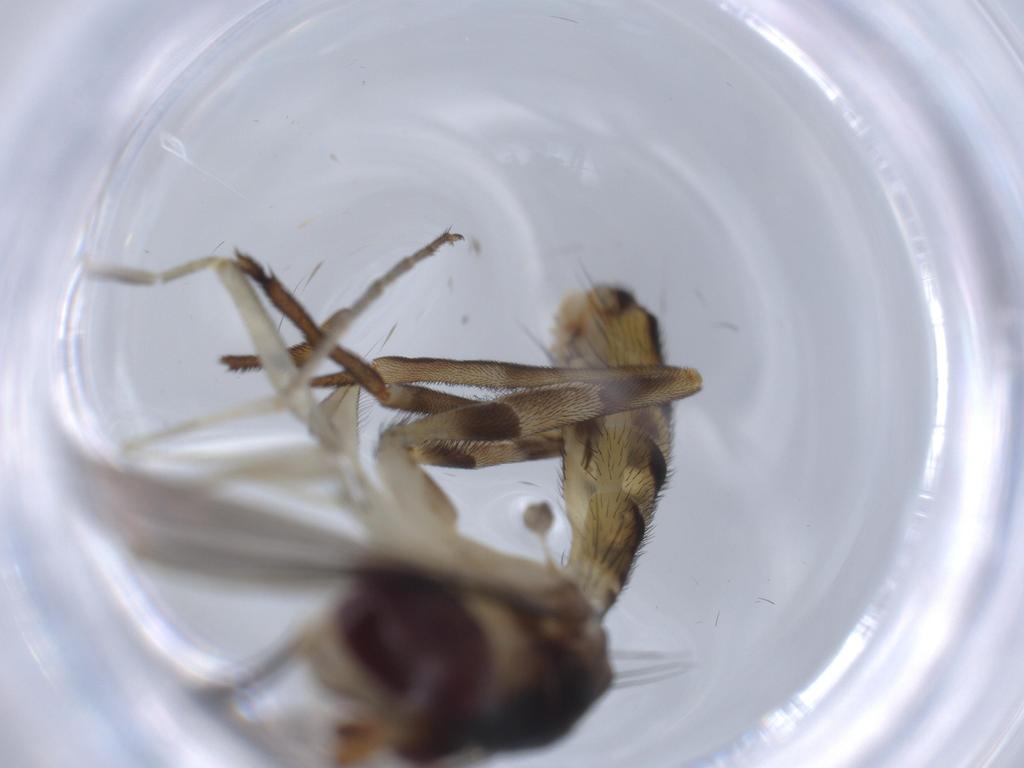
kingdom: Animalia
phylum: Arthropoda
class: Insecta
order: Diptera
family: Conopidae
